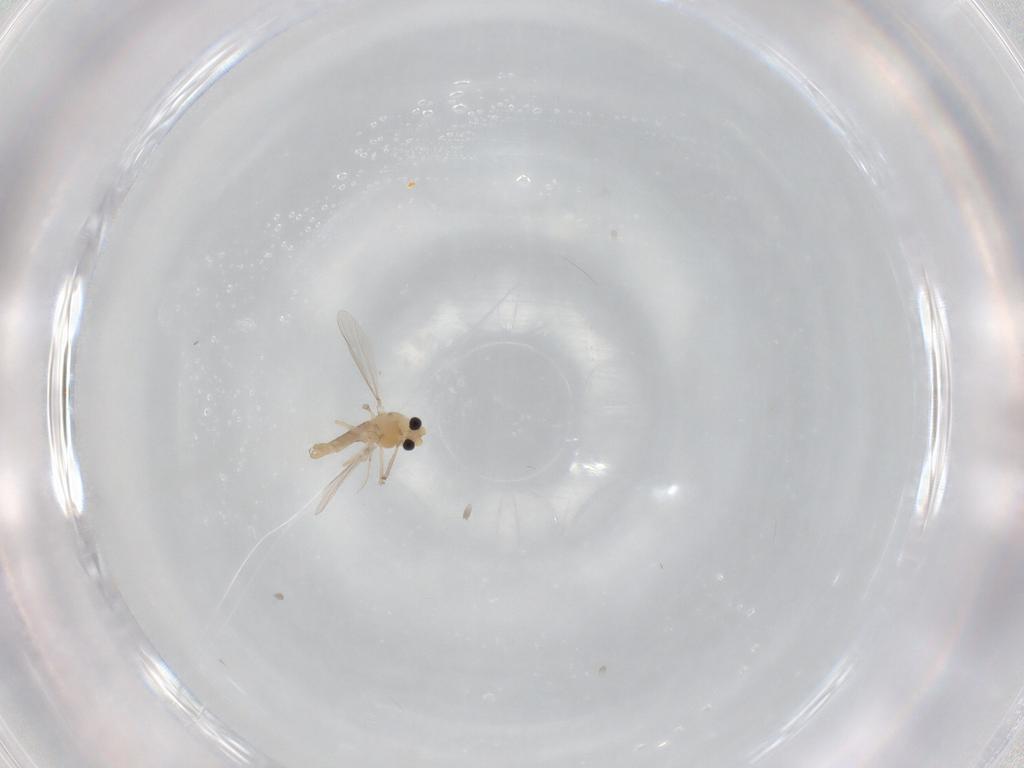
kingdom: Animalia
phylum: Arthropoda
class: Insecta
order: Diptera
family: Chironomidae
